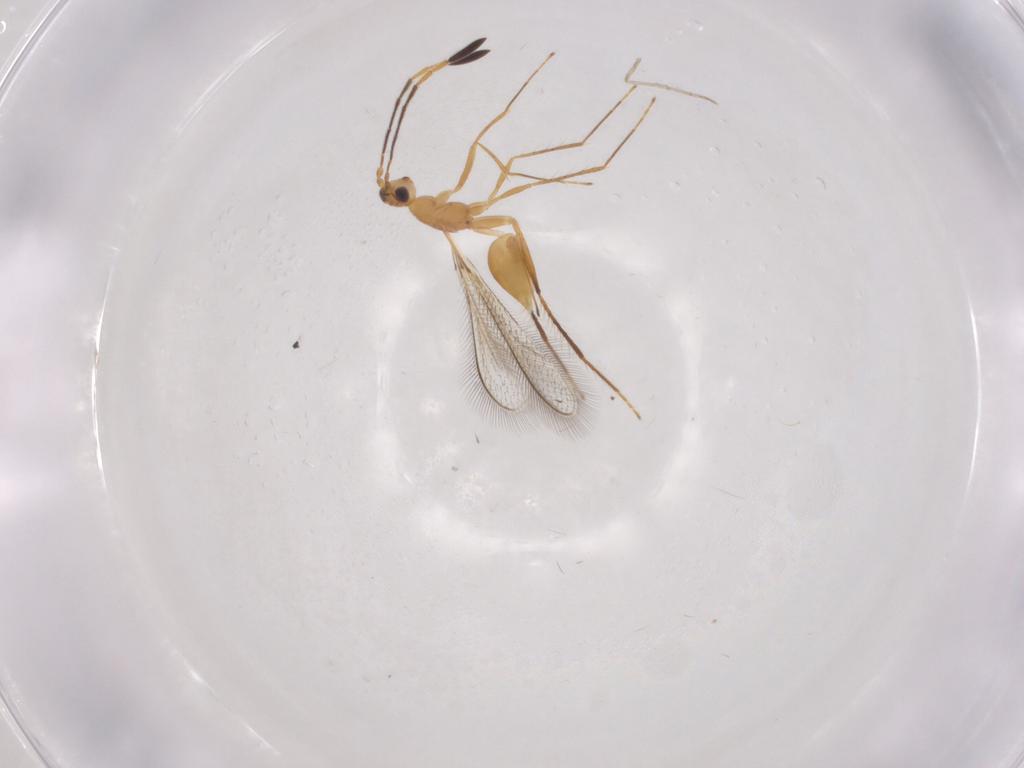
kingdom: Animalia
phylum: Arthropoda
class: Insecta
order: Hymenoptera
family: Mymaridae
